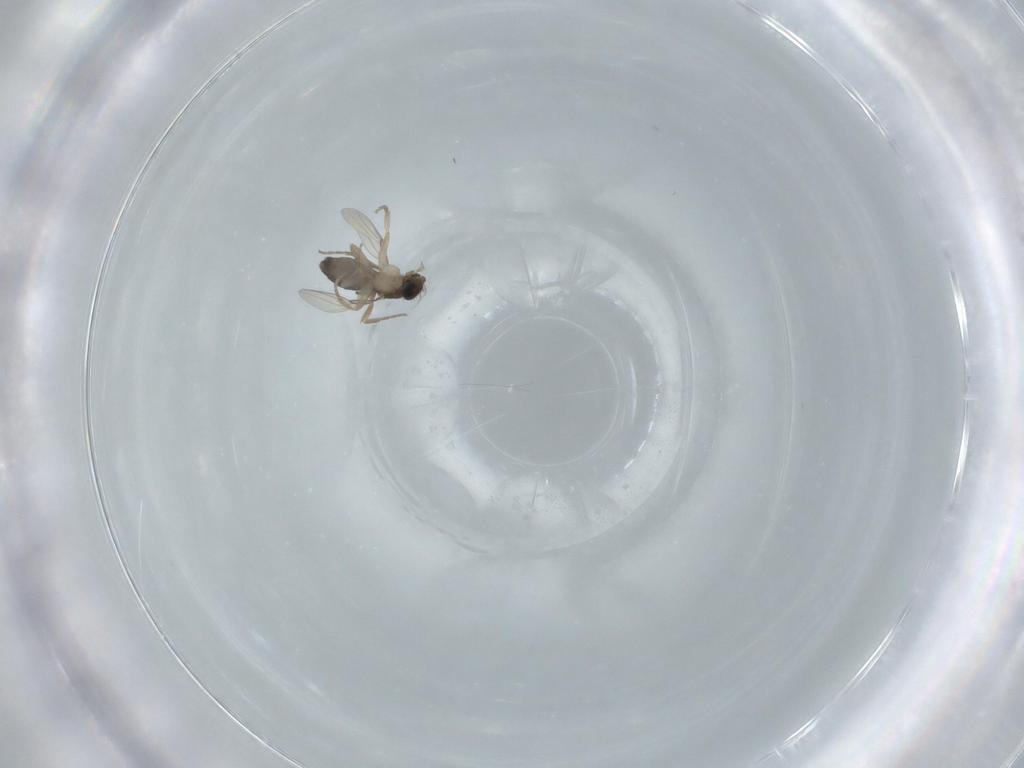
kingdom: Animalia
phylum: Arthropoda
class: Insecta
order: Diptera
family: Phoridae
